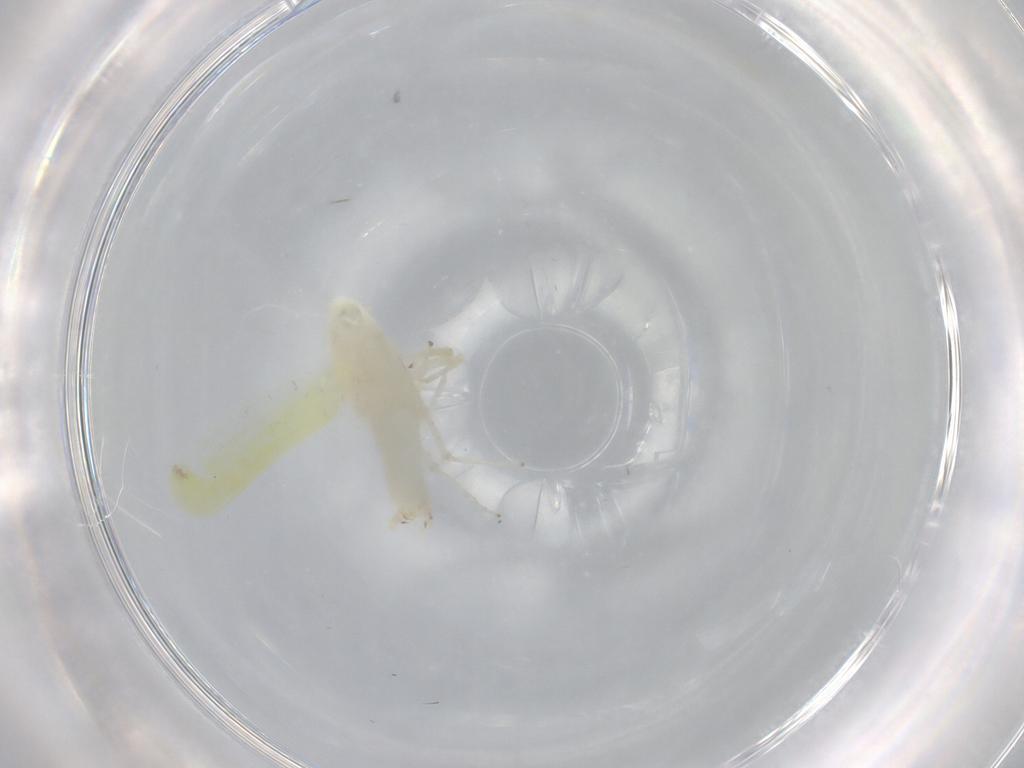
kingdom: Animalia
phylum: Arthropoda
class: Insecta
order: Hemiptera
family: Cicadellidae
